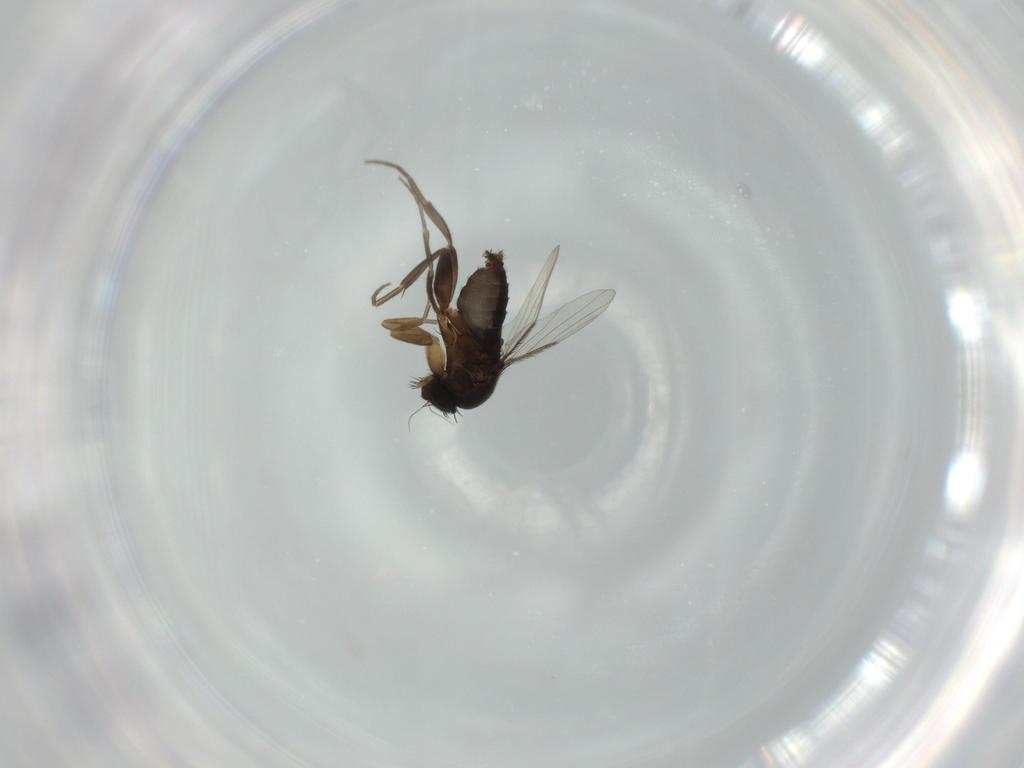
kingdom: Animalia
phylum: Arthropoda
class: Insecta
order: Diptera
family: Phoridae
